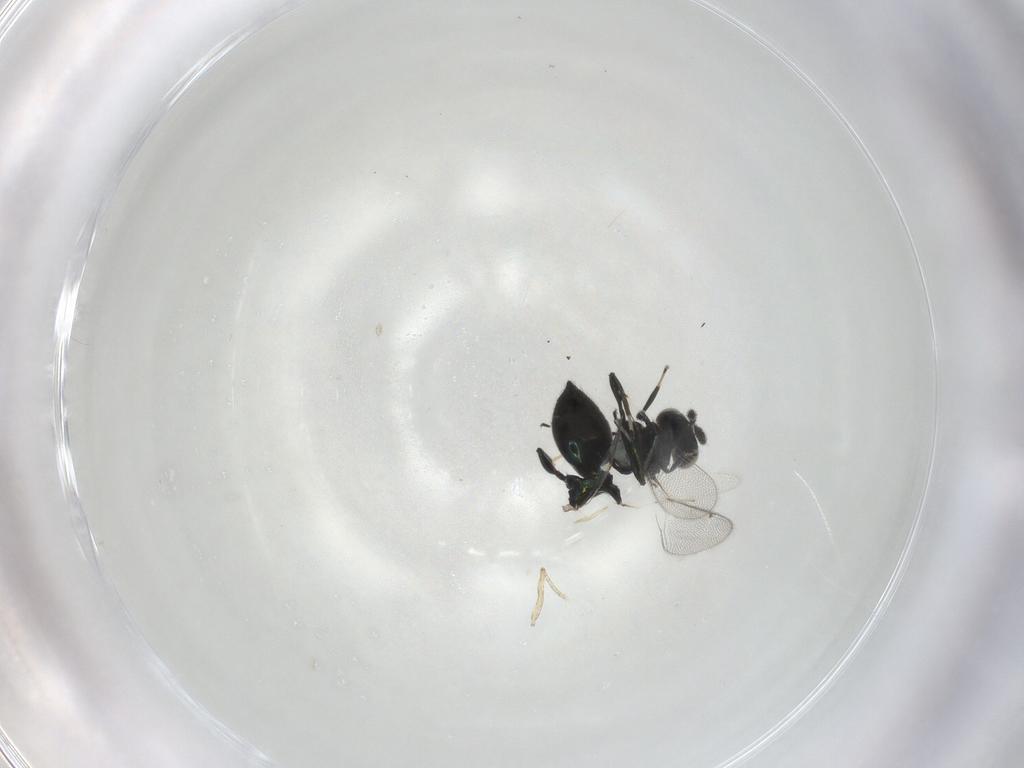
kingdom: Animalia
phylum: Arthropoda
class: Insecta
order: Hymenoptera
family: Eulophidae
